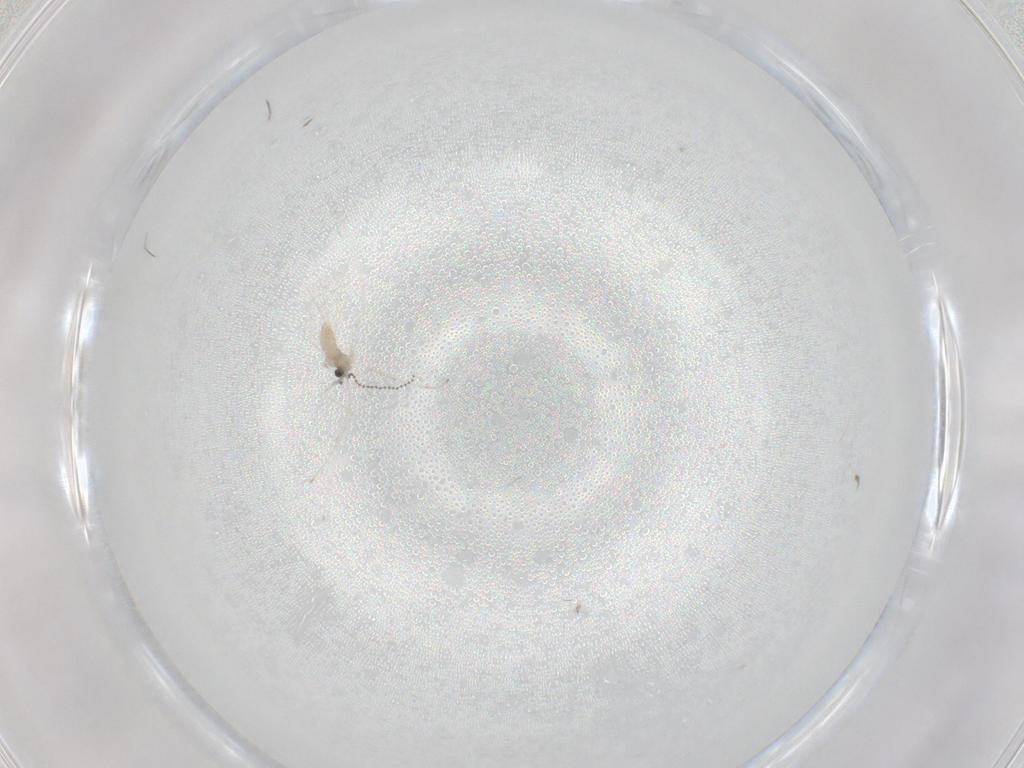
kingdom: Animalia
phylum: Arthropoda
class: Insecta
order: Diptera
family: Cecidomyiidae
